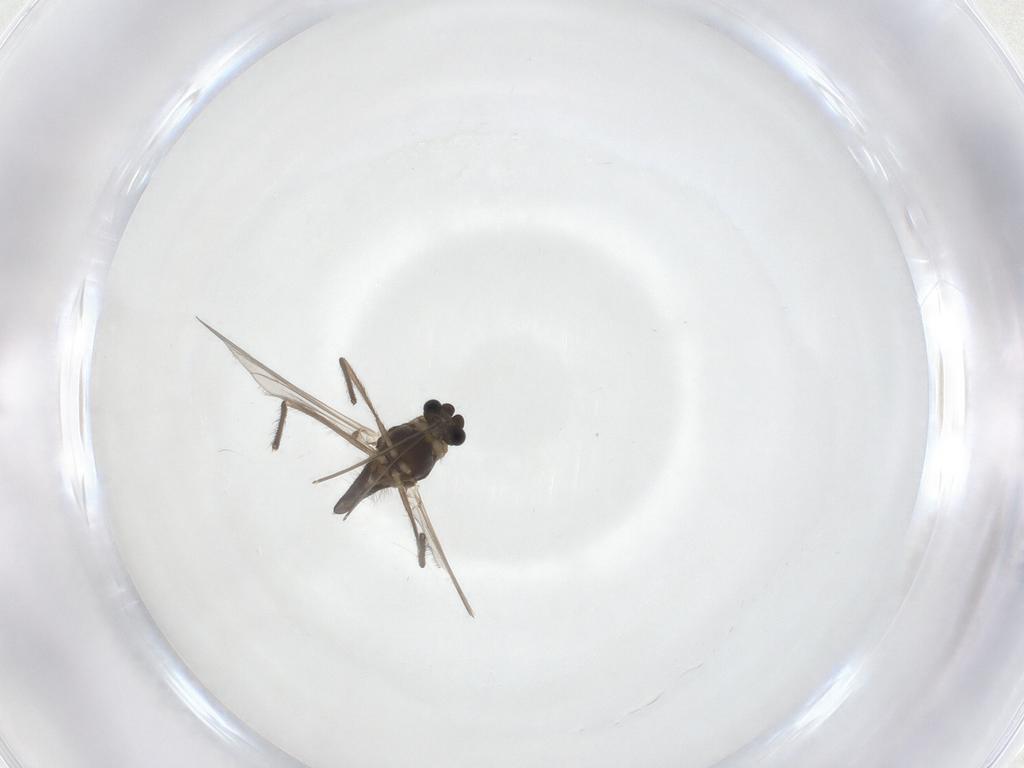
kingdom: Animalia
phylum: Arthropoda
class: Insecta
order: Diptera
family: Chironomidae
